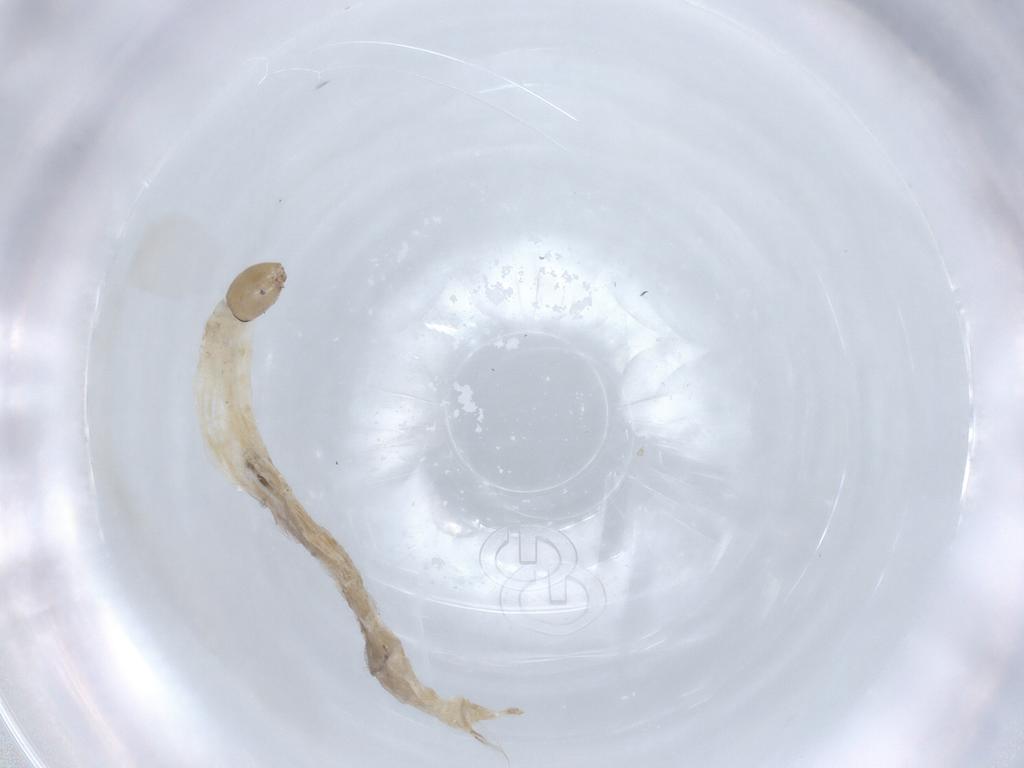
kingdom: Animalia
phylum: Arthropoda
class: Insecta
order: Diptera
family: Chironomidae
